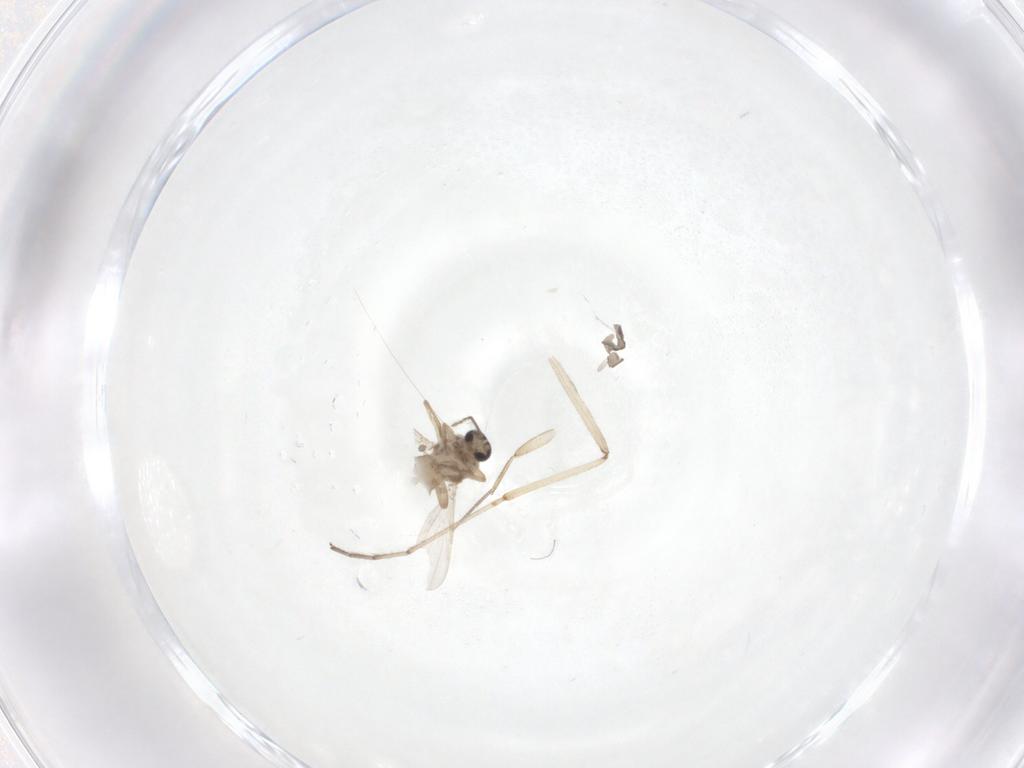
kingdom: Animalia
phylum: Arthropoda
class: Insecta
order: Diptera
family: Ceratopogonidae
